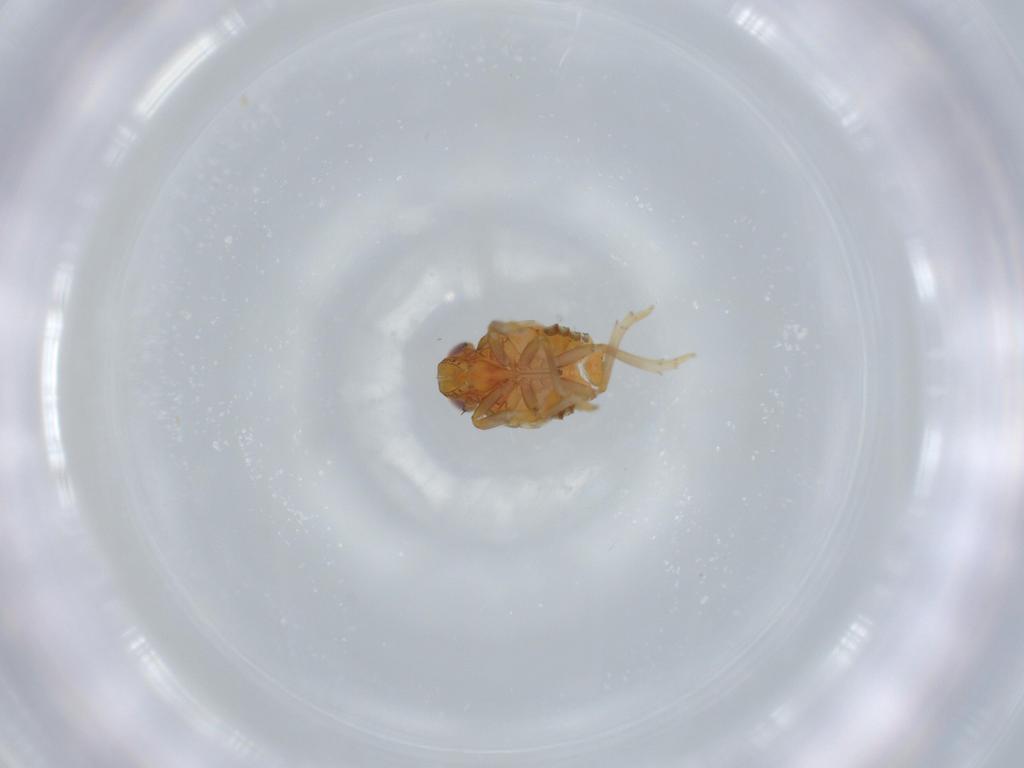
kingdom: Animalia
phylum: Arthropoda
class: Insecta
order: Hemiptera
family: Issidae
